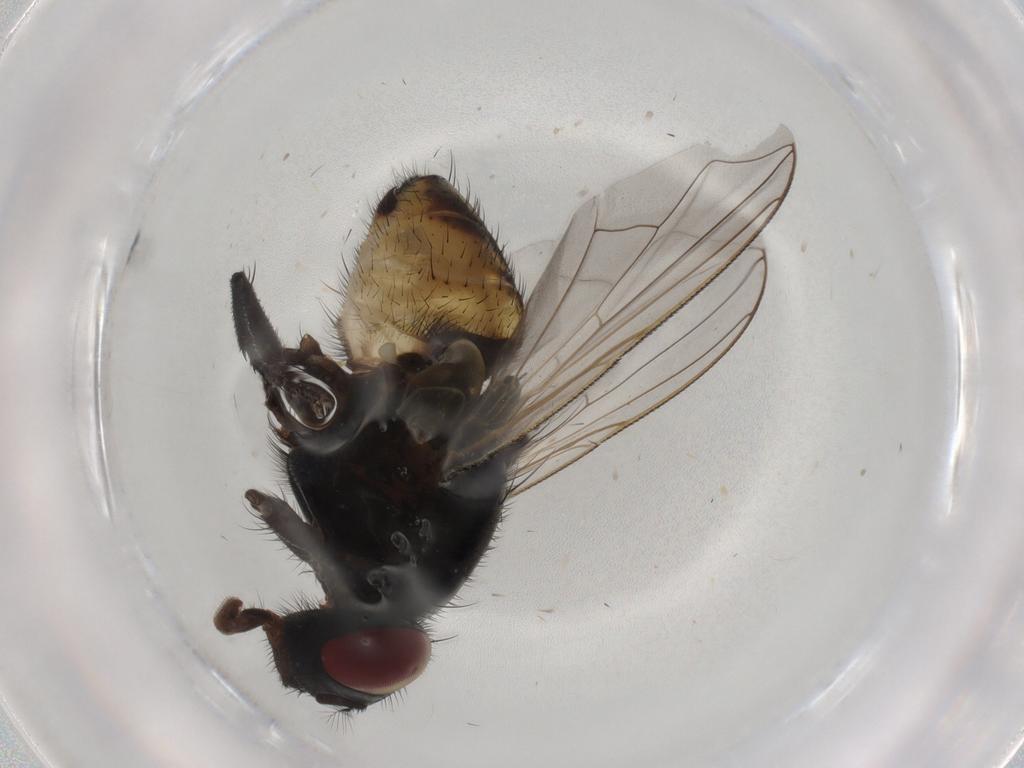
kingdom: Animalia
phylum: Arthropoda
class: Insecta
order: Diptera
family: Muscidae
